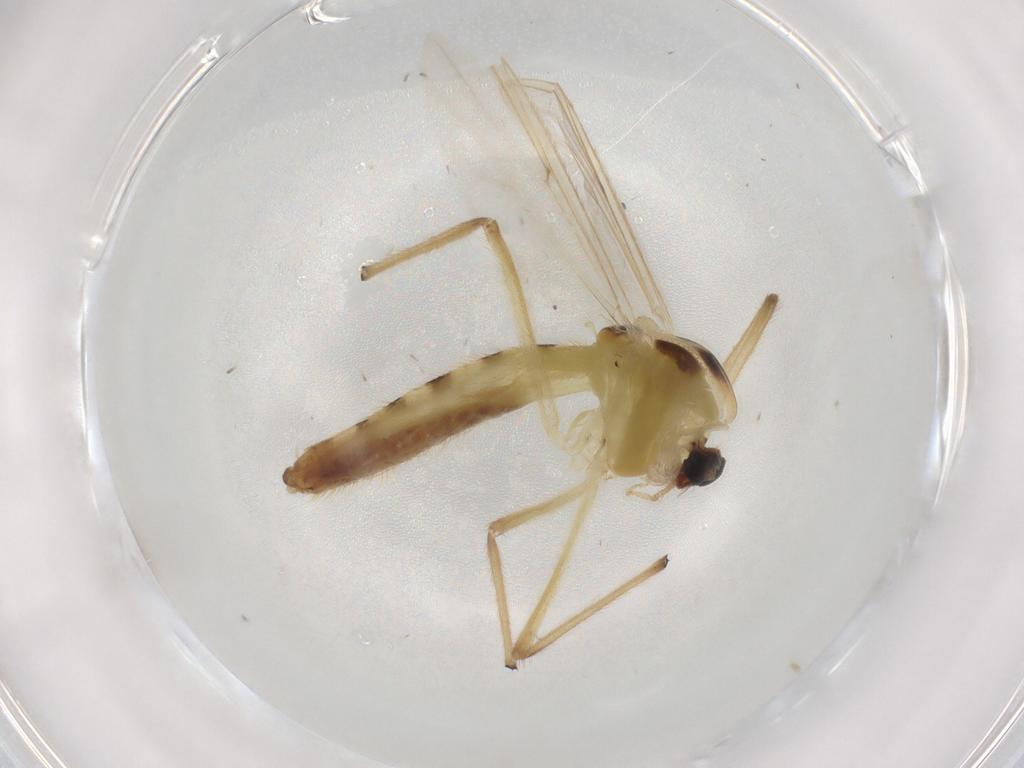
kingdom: Animalia
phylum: Arthropoda
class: Insecta
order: Diptera
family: Chironomidae
